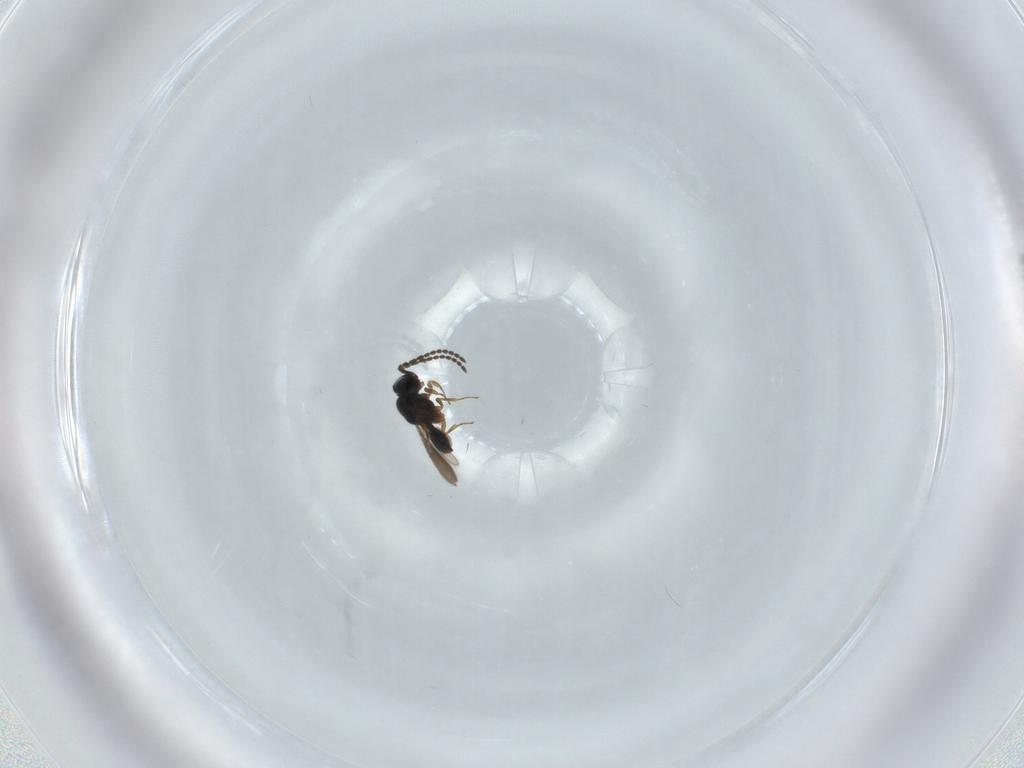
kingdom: Animalia
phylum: Arthropoda
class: Insecta
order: Hymenoptera
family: Scelionidae
